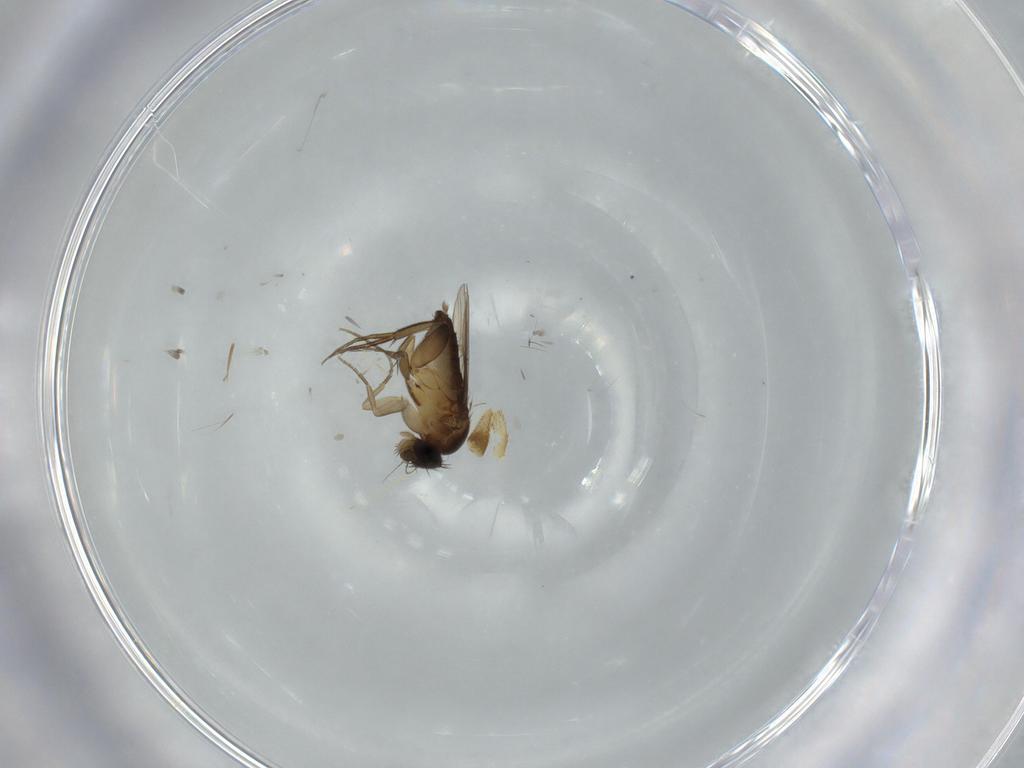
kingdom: Animalia
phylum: Arthropoda
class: Insecta
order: Diptera
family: Phoridae
